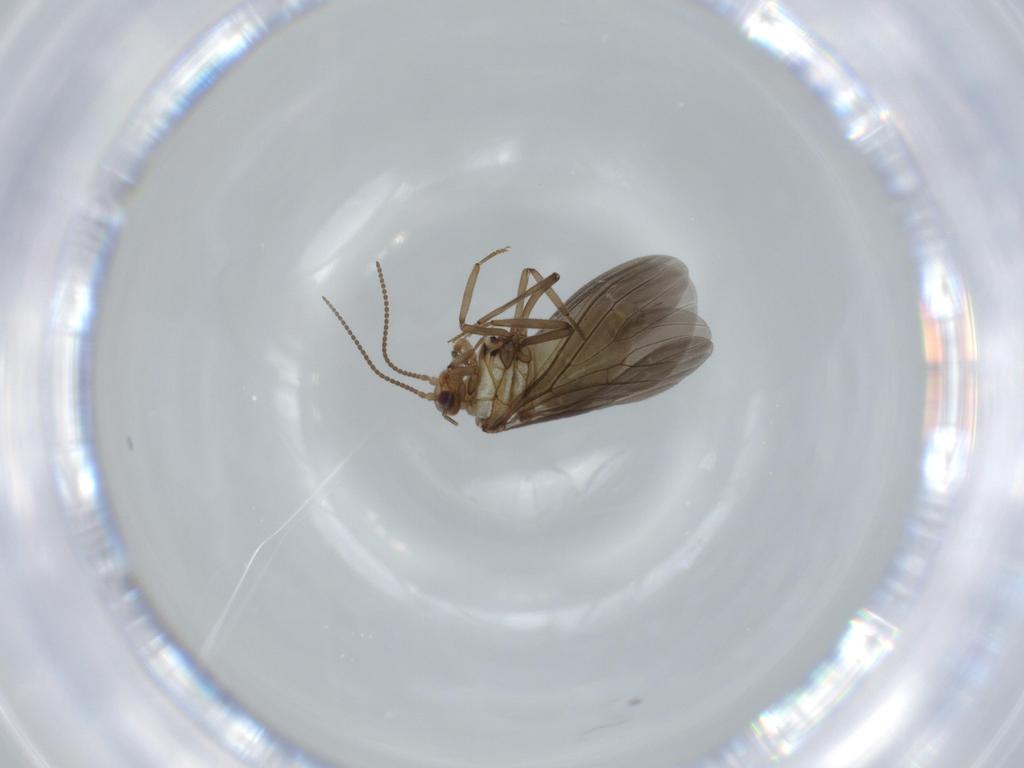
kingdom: Animalia
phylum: Arthropoda
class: Insecta
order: Neuroptera
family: Coniopterygidae
